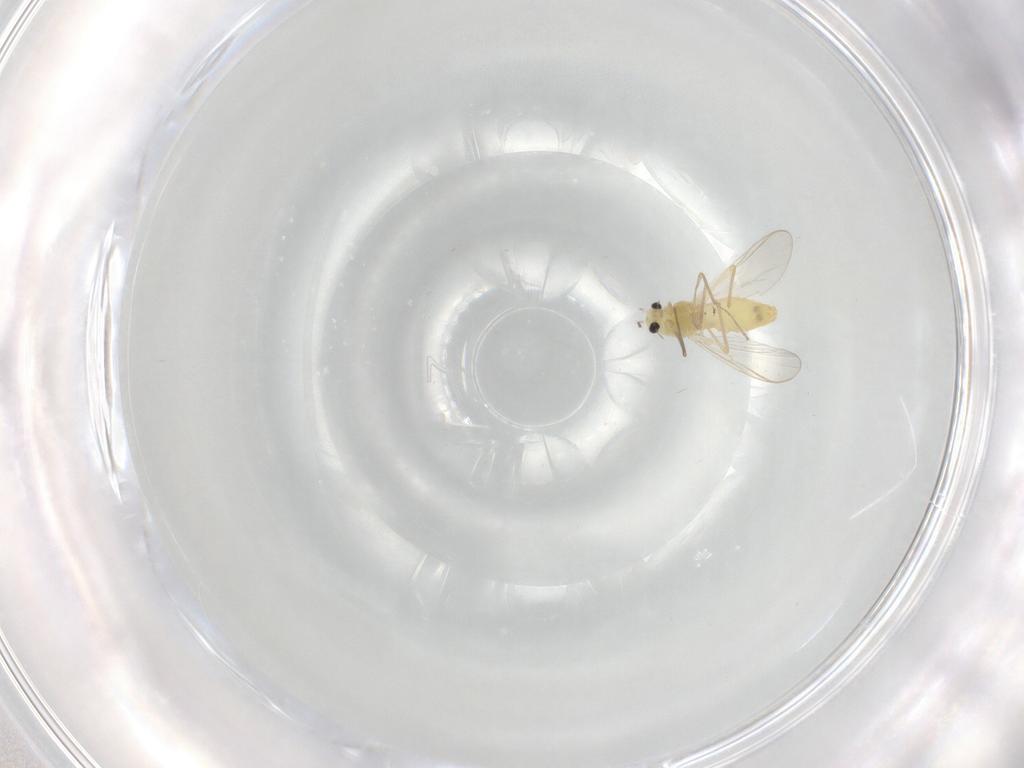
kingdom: Animalia
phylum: Arthropoda
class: Insecta
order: Diptera
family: Chironomidae
